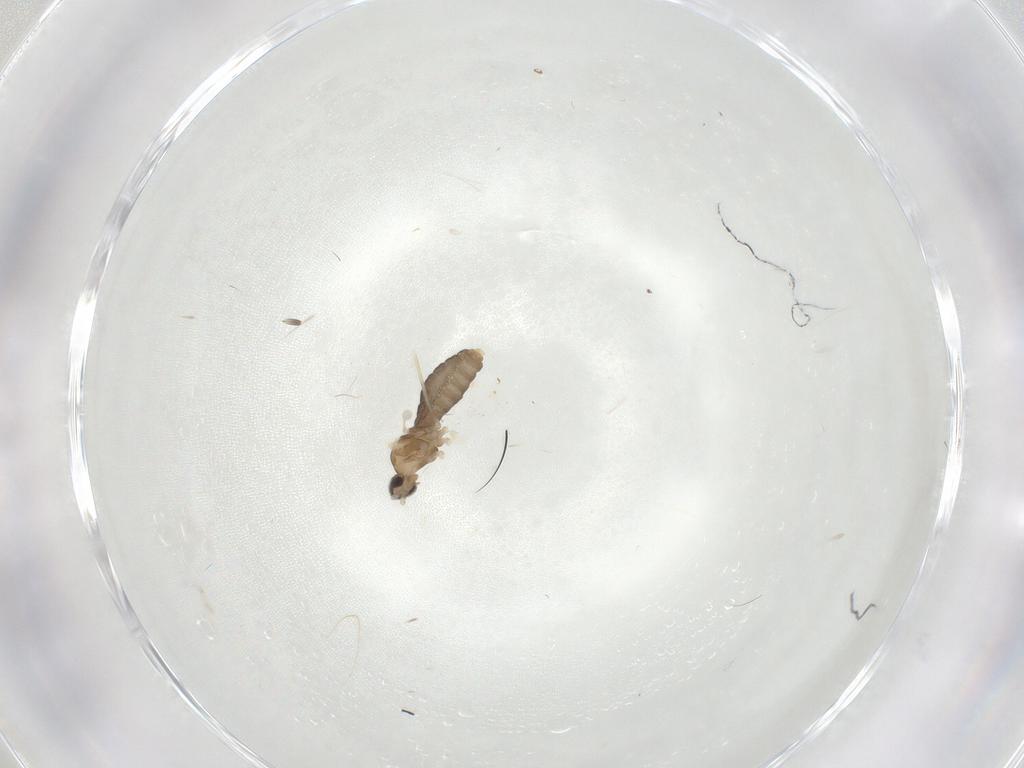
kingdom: Animalia
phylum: Arthropoda
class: Insecta
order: Diptera
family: Cecidomyiidae
